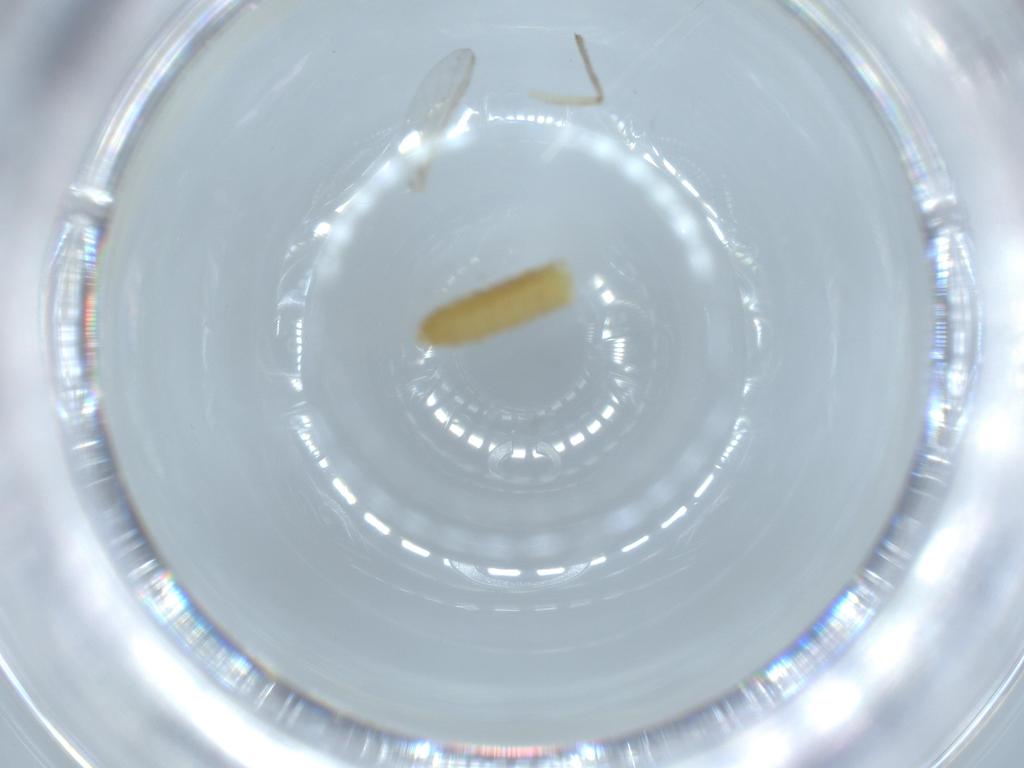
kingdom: Animalia
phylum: Arthropoda
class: Insecta
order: Diptera
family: Chironomidae
